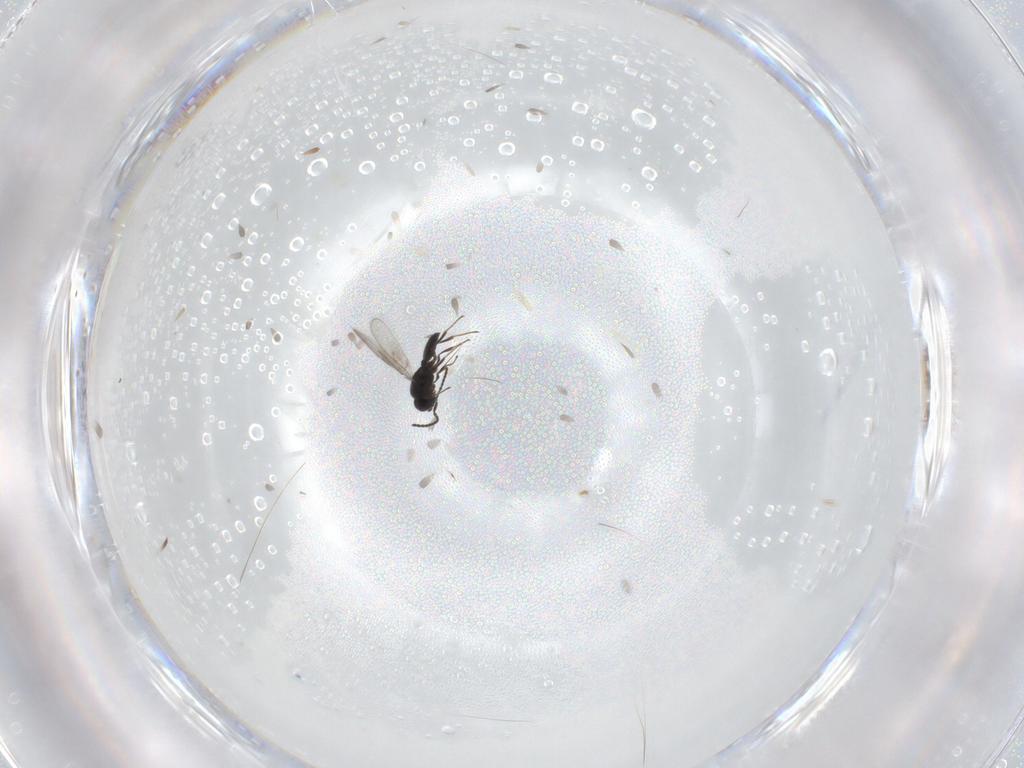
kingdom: Animalia
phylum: Arthropoda
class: Insecta
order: Hymenoptera
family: Scelionidae
